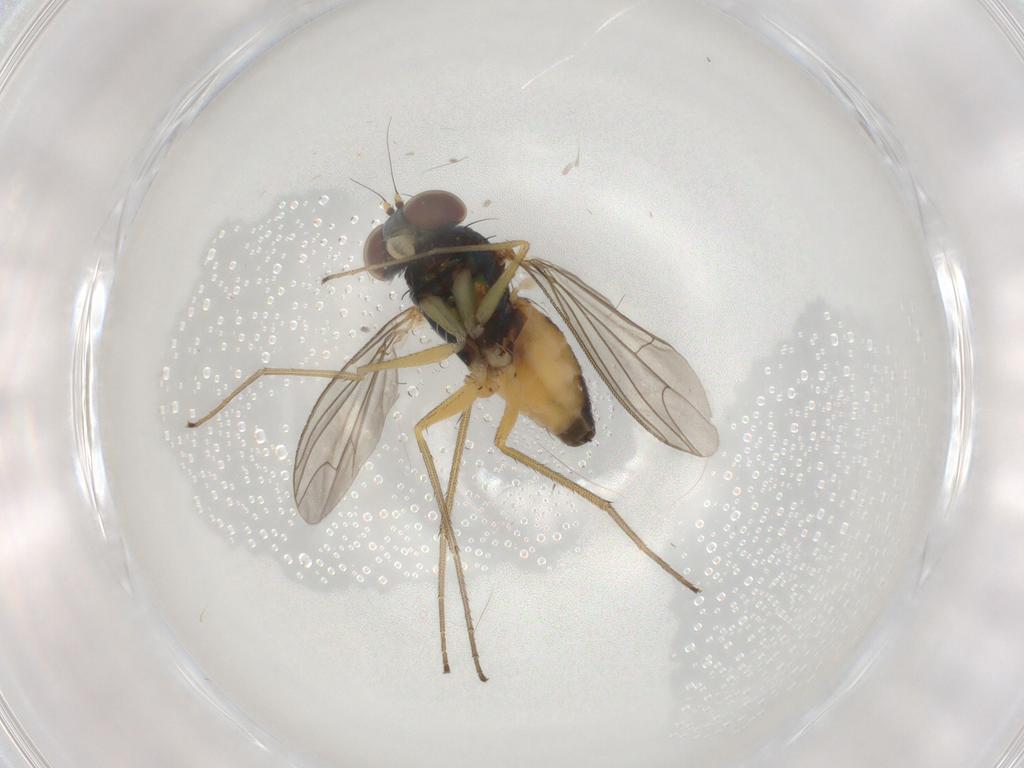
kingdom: Animalia
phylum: Arthropoda
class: Insecta
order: Diptera
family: Dolichopodidae
